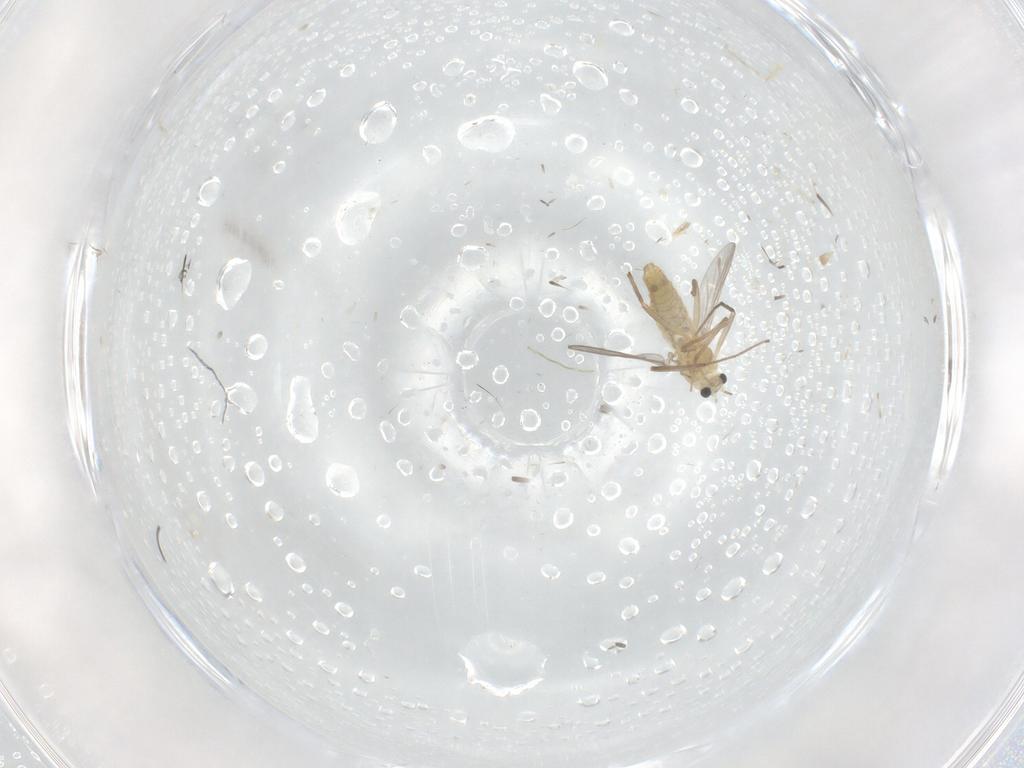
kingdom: Animalia
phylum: Arthropoda
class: Insecta
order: Diptera
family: Chironomidae
